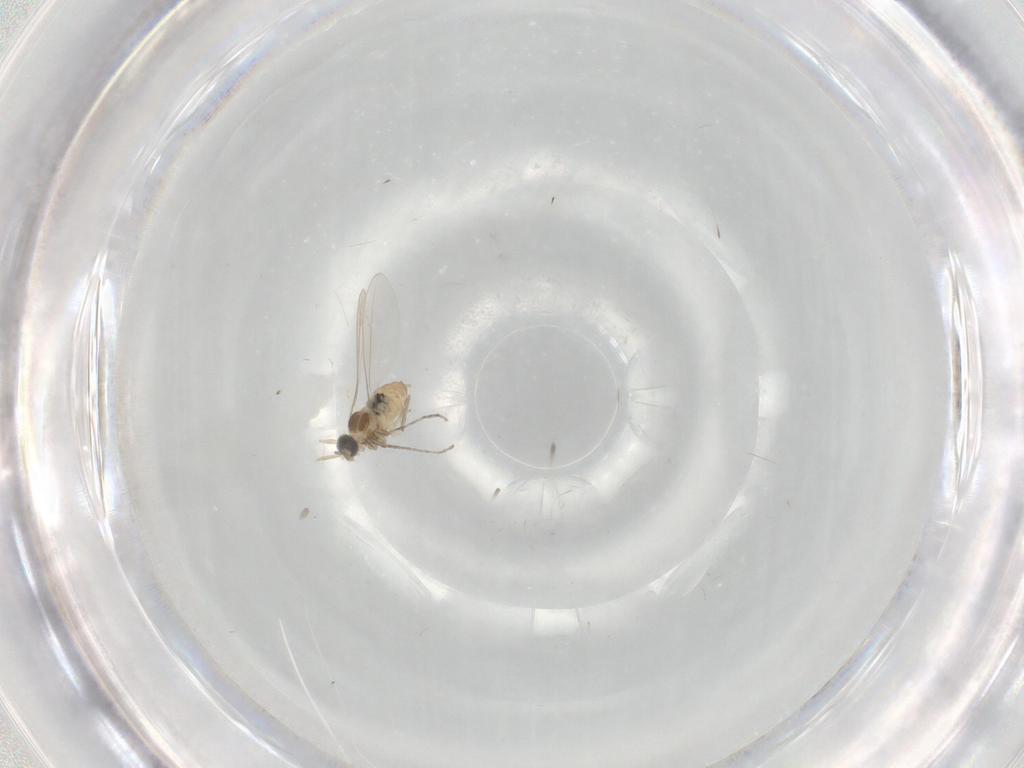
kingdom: Animalia
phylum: Arthropoda
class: Insecta
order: Diptera
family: Cecidomyiidae
